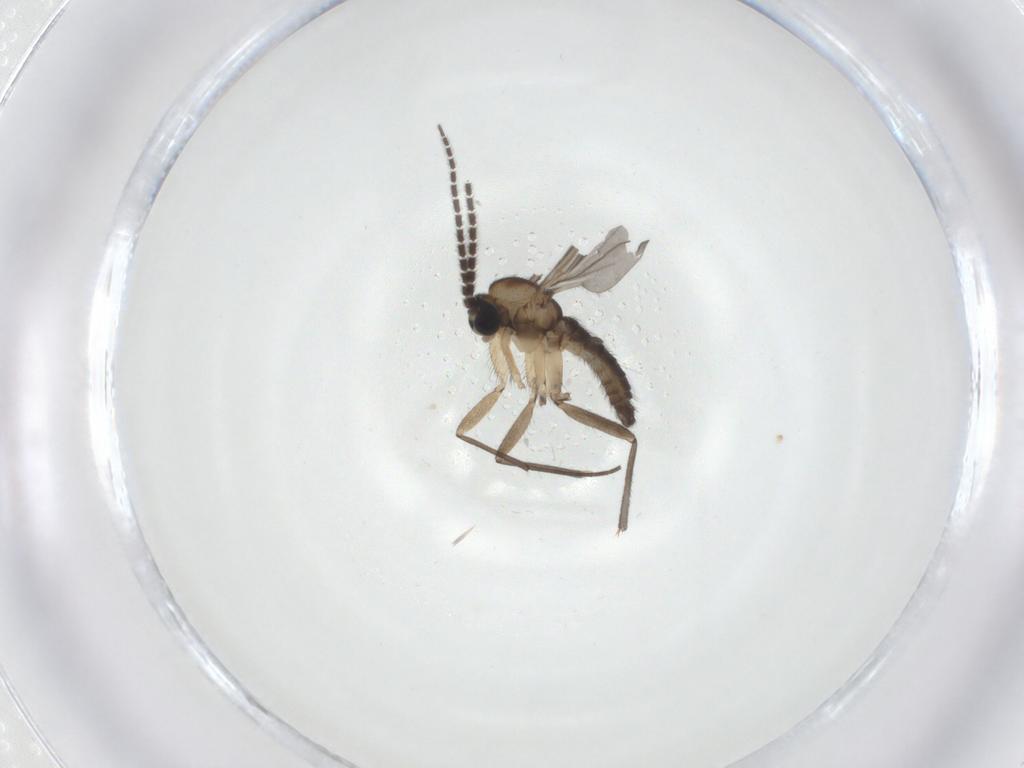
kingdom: Animalia
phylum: Arthropoda
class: Insecta
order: Diptera
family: Sciaridae
